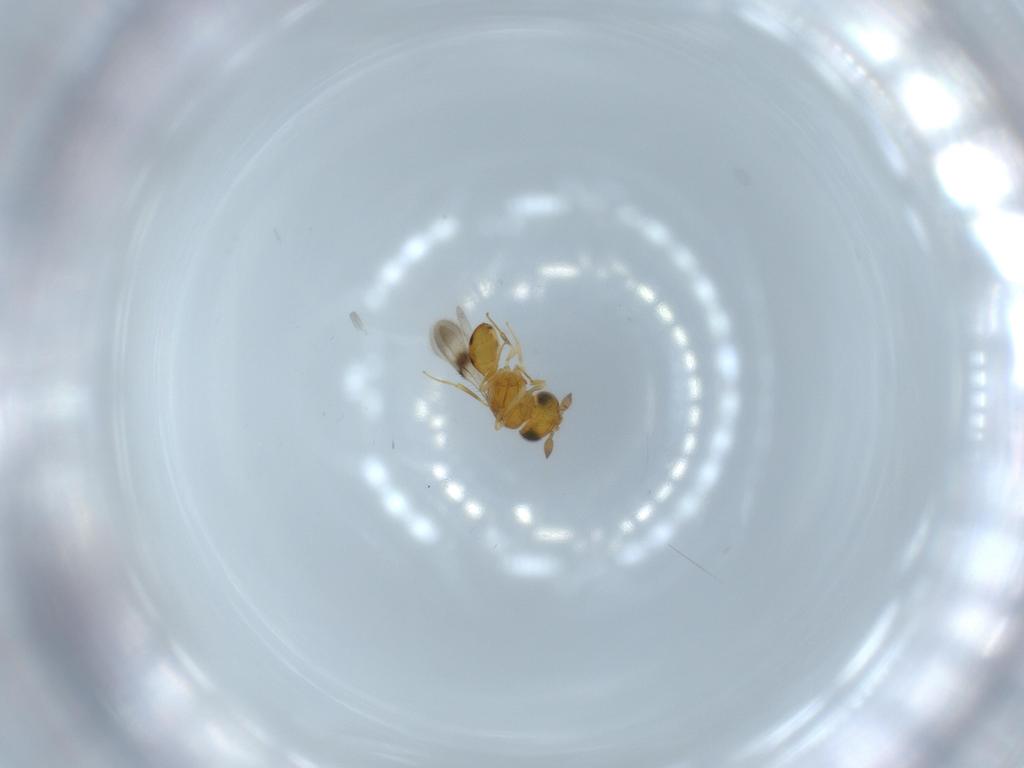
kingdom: Animalia
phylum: Arthropoda
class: Insecta
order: Hymenoptera
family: Scelionidae
